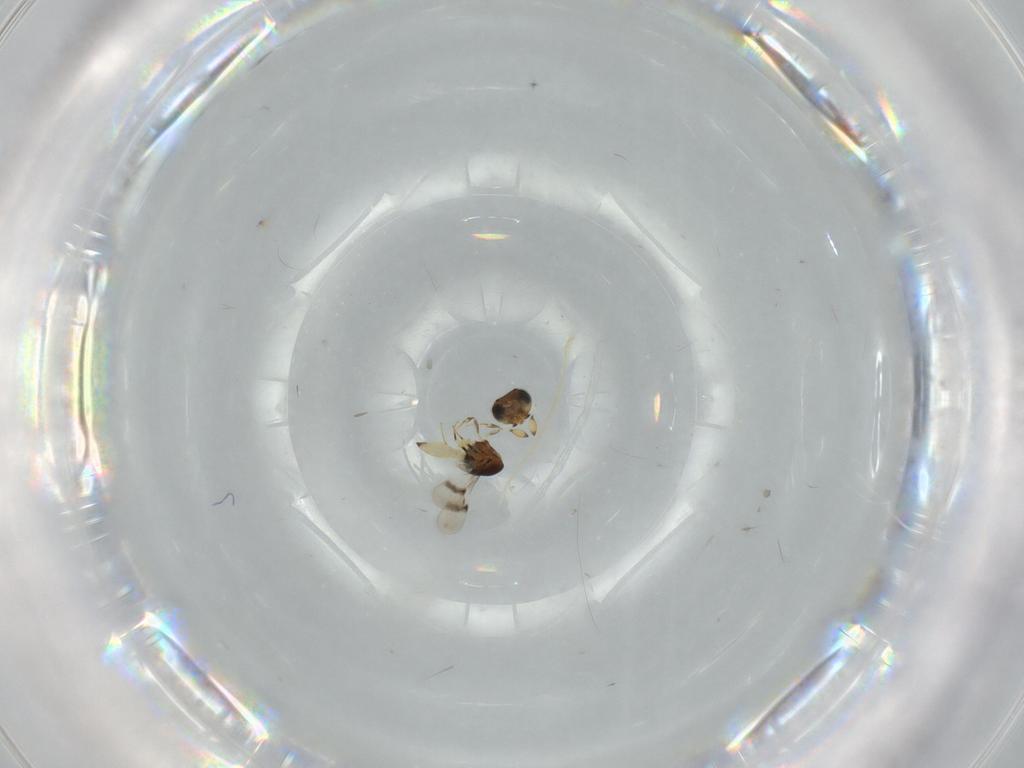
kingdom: Animalia
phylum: Arthropoda
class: Insecta
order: Hymenoptera
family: Scelionidae
